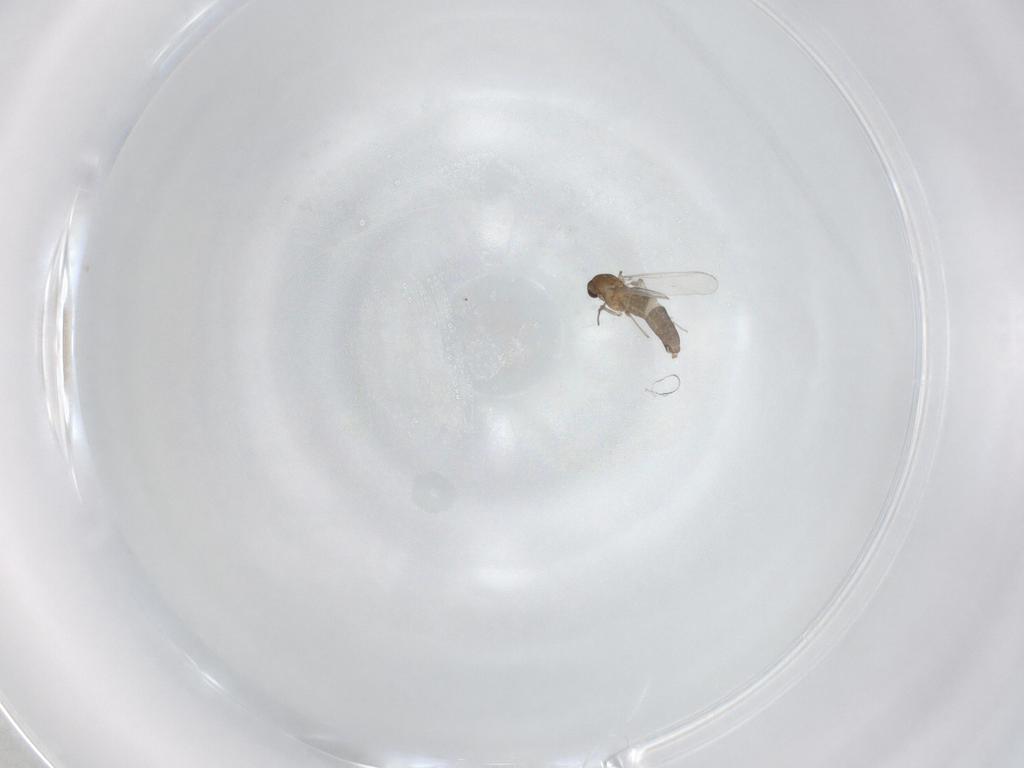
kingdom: Animalia
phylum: Arthropoda
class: Insecta
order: Diptera
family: Chironomidae
